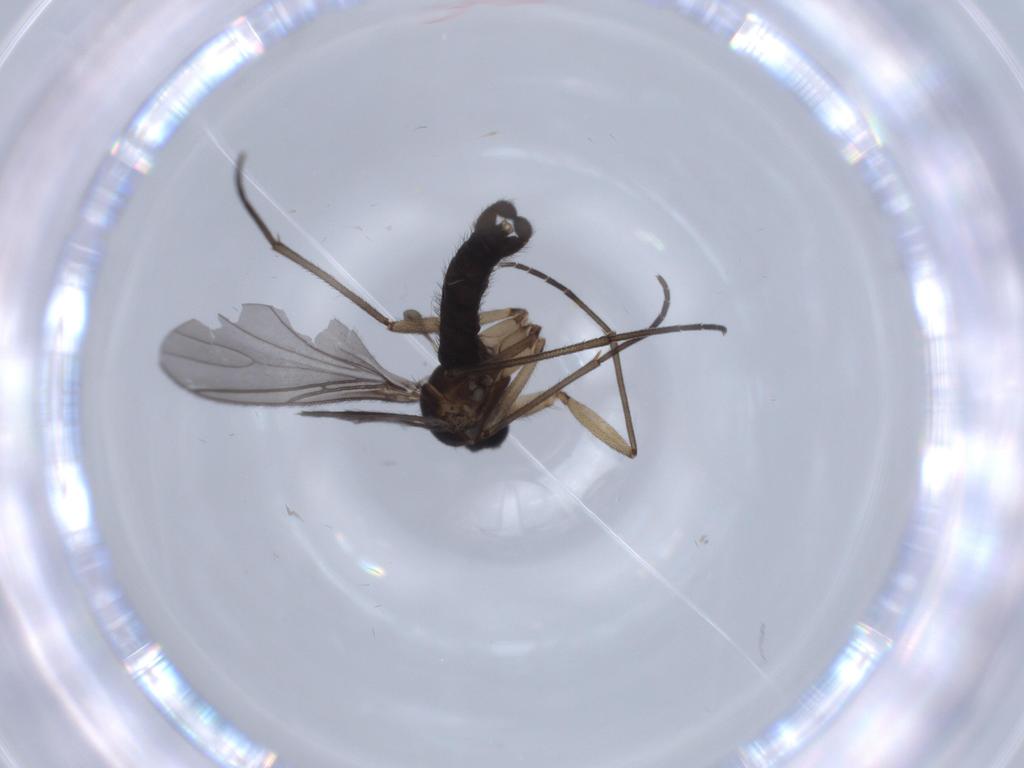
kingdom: Animalia
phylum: Arthropoda
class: Insecta
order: Diptera
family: Sciaridae
